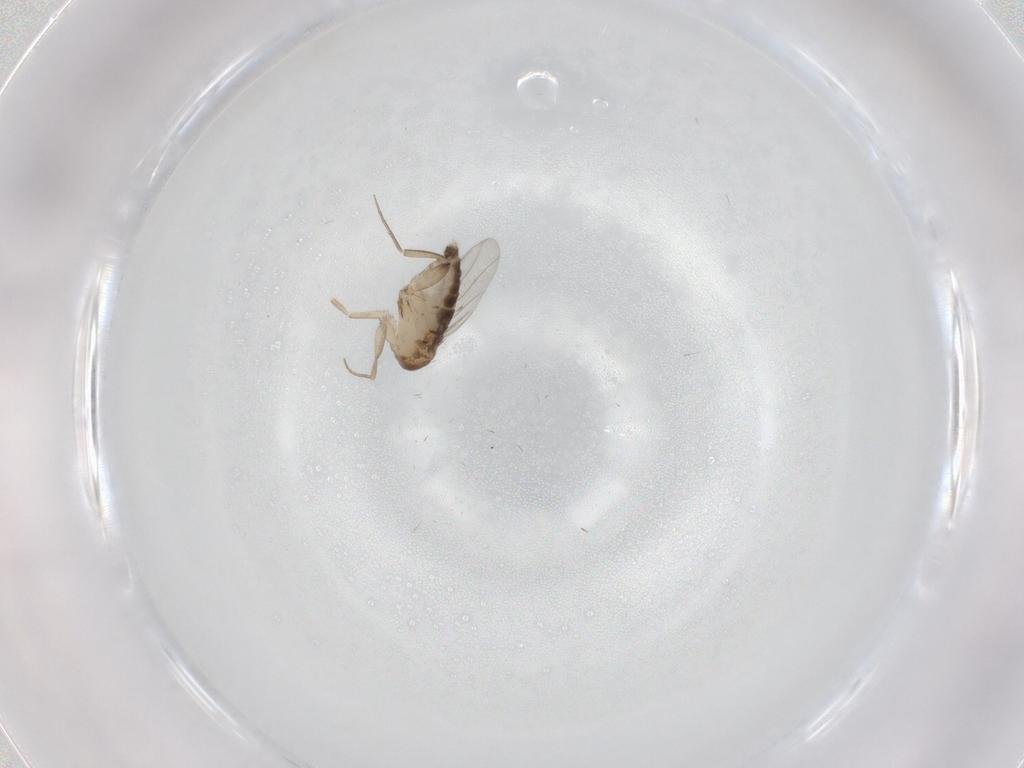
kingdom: Animalia
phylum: Arthropoda
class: Insecta
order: Diptera
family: Phoridae
